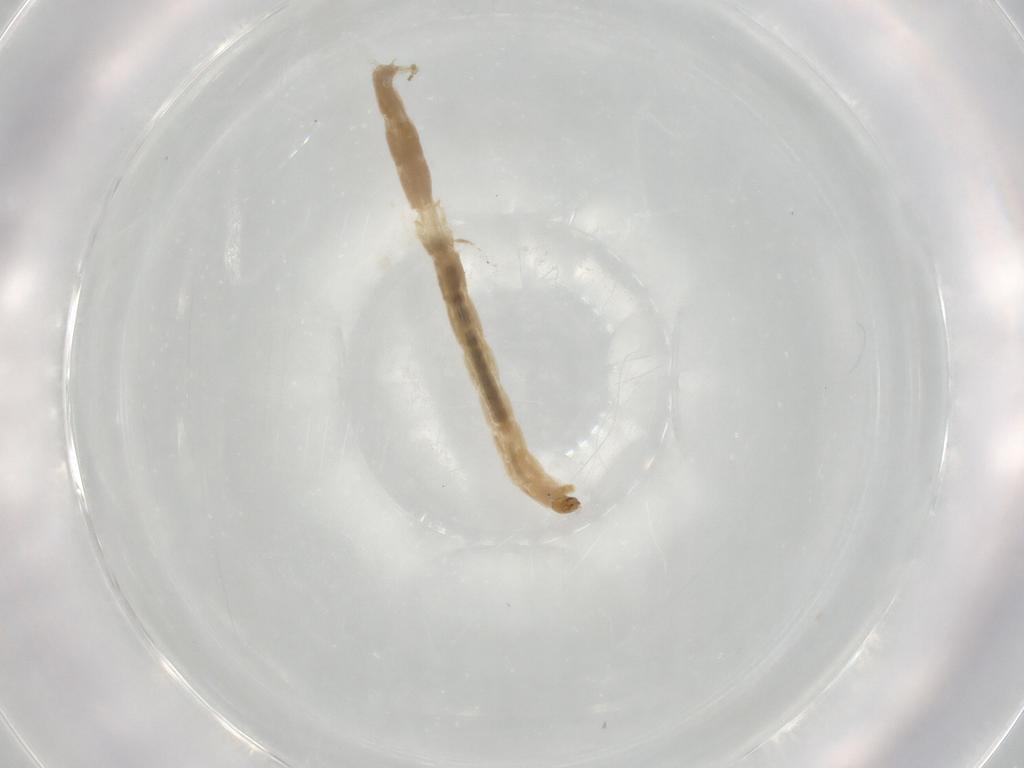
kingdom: Animalia
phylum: Arthropoda
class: Insecta
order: Diptera
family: Chironomidae
